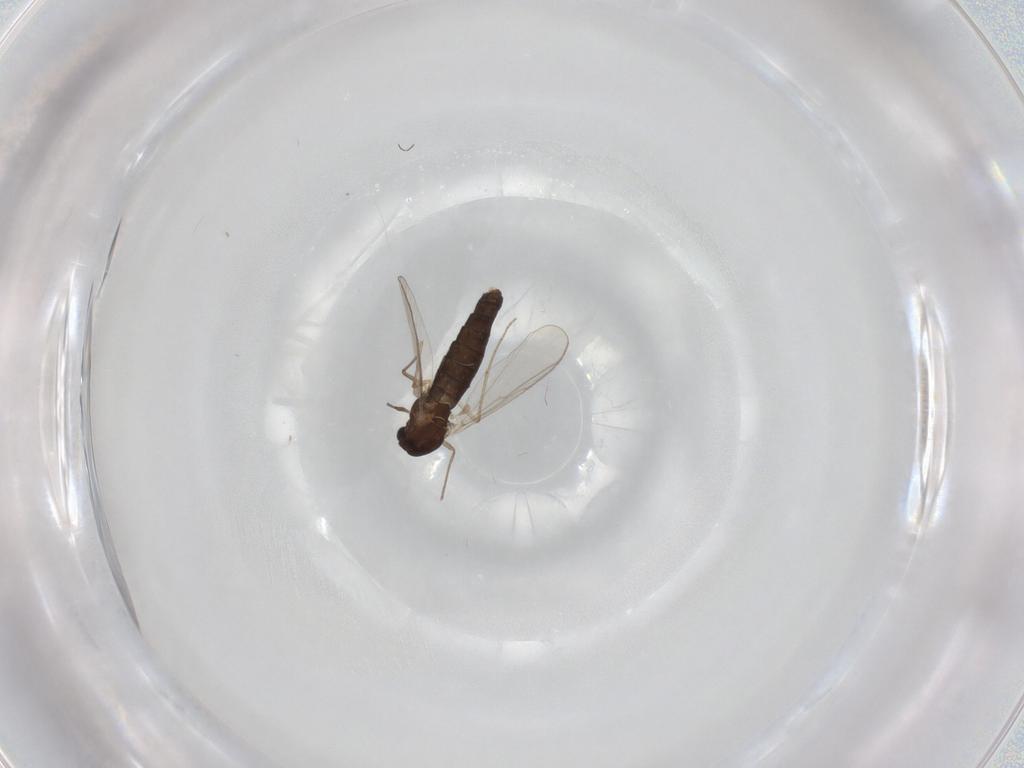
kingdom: Animalia
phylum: Arthropoda
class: Insecta
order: Diptera
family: Chironomidae
